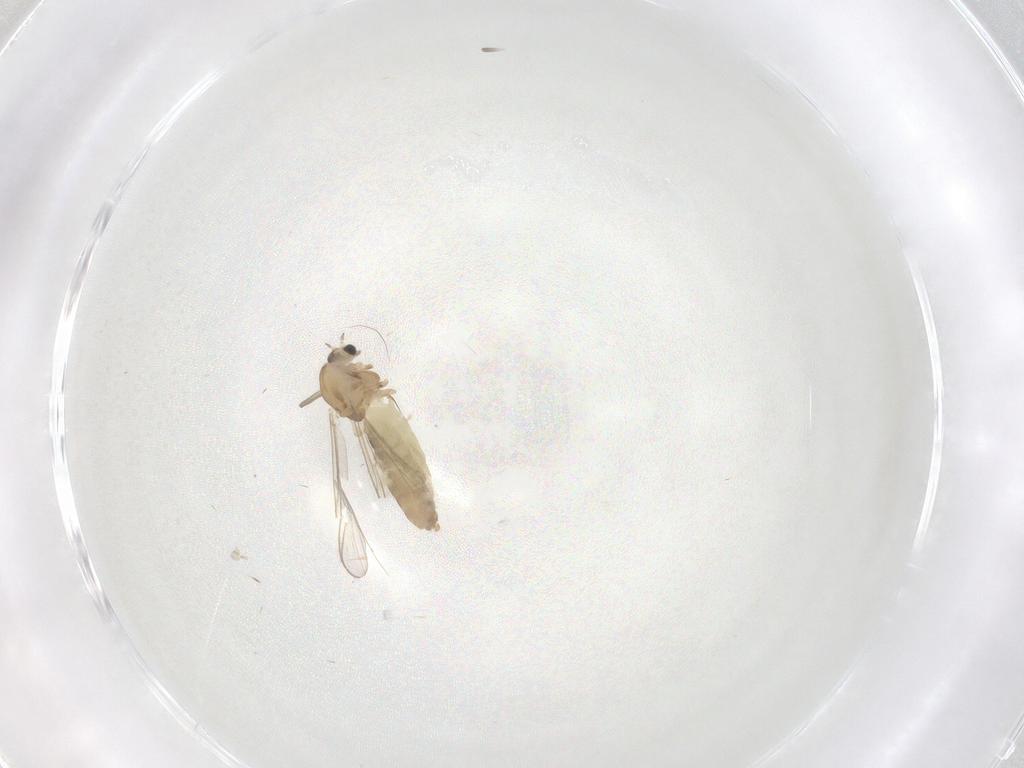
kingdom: Animalia
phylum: Arthropoda
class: Insecta
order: Diptera
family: Chironomidae
